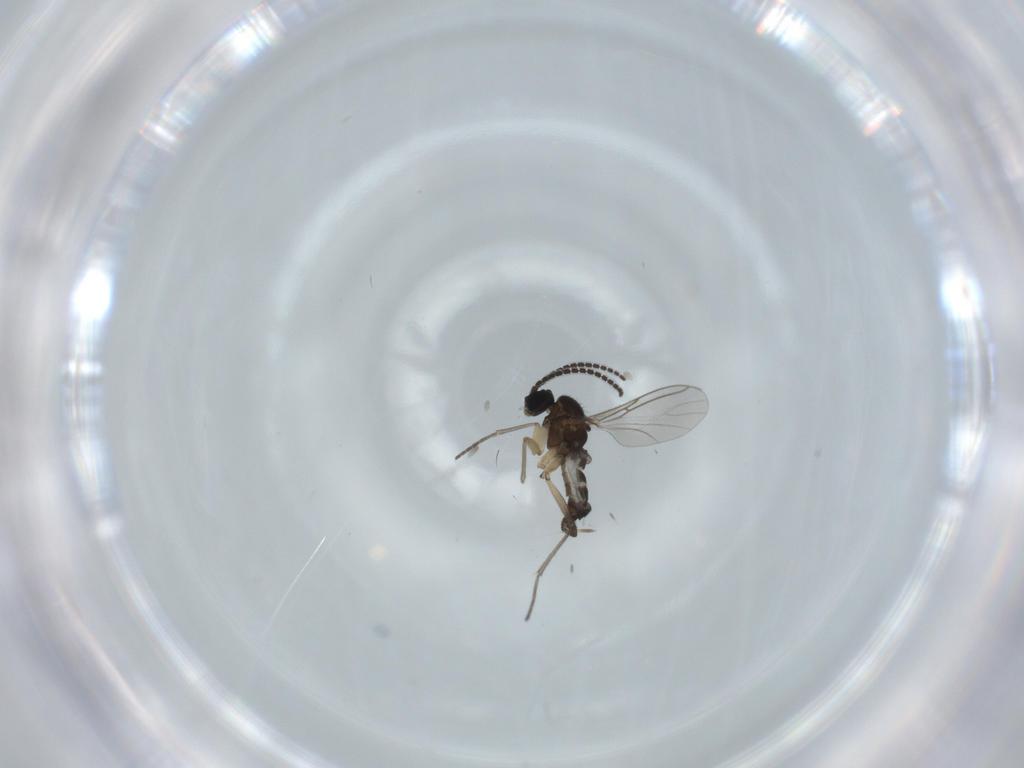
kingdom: Animalia
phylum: Arthropoda
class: Insecta
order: Diptera
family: Sciaridae
